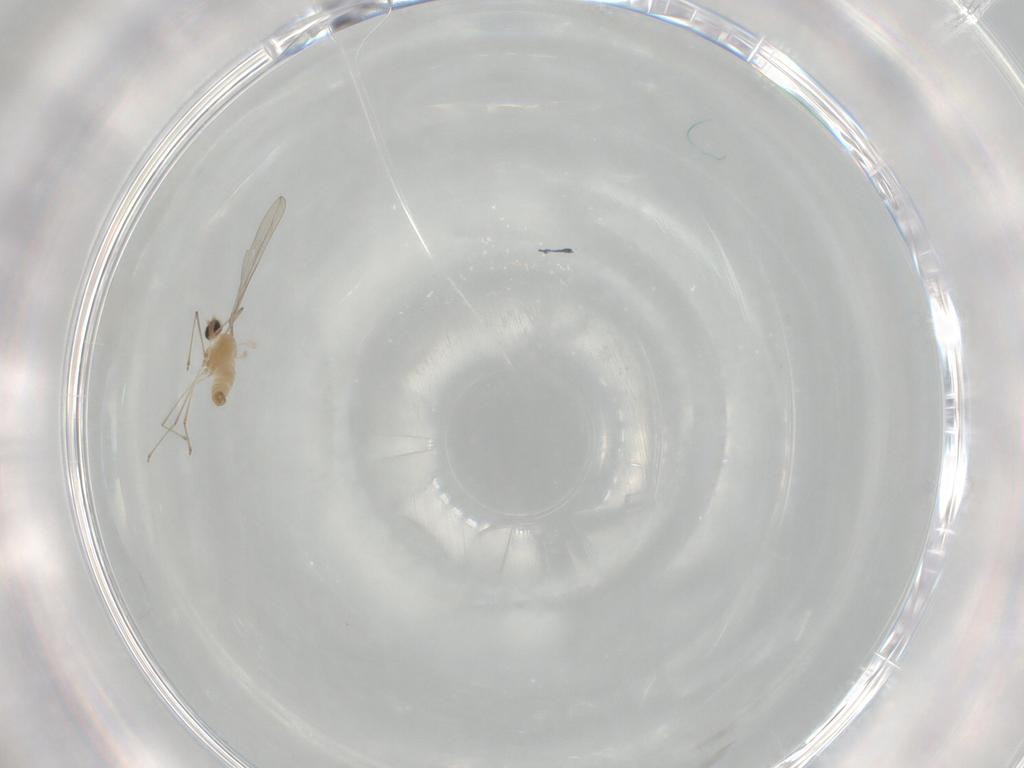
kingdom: Animalia
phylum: Arthropoda
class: Insecta
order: Diptera
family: Cecidomyiidae
